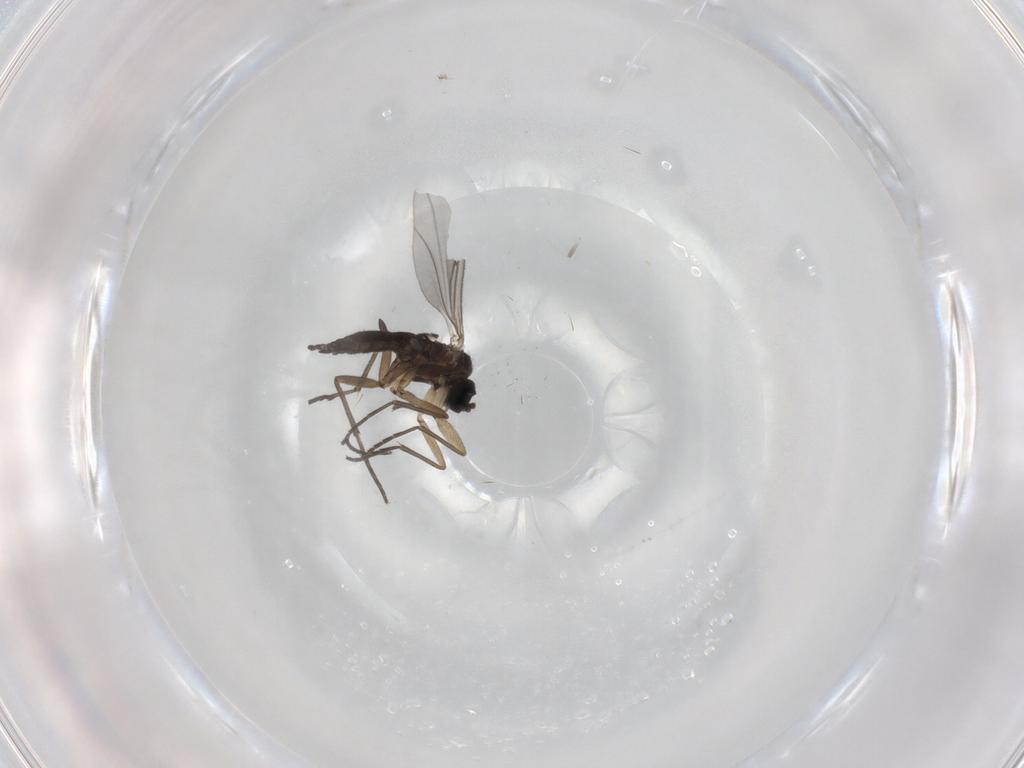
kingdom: Animalia
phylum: Arthropoda
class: Insecta
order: Diptera
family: Sciaridae
